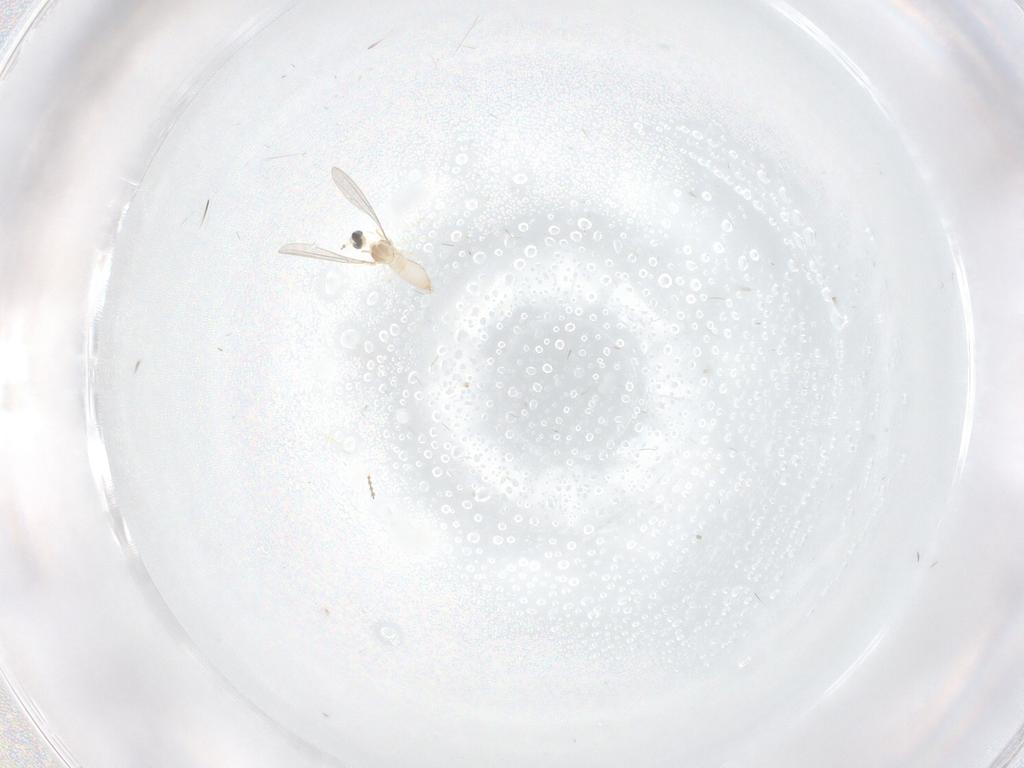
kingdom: Animalia
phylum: Arthropoda
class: Insecta
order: Diptera
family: Cecidomyiidae
